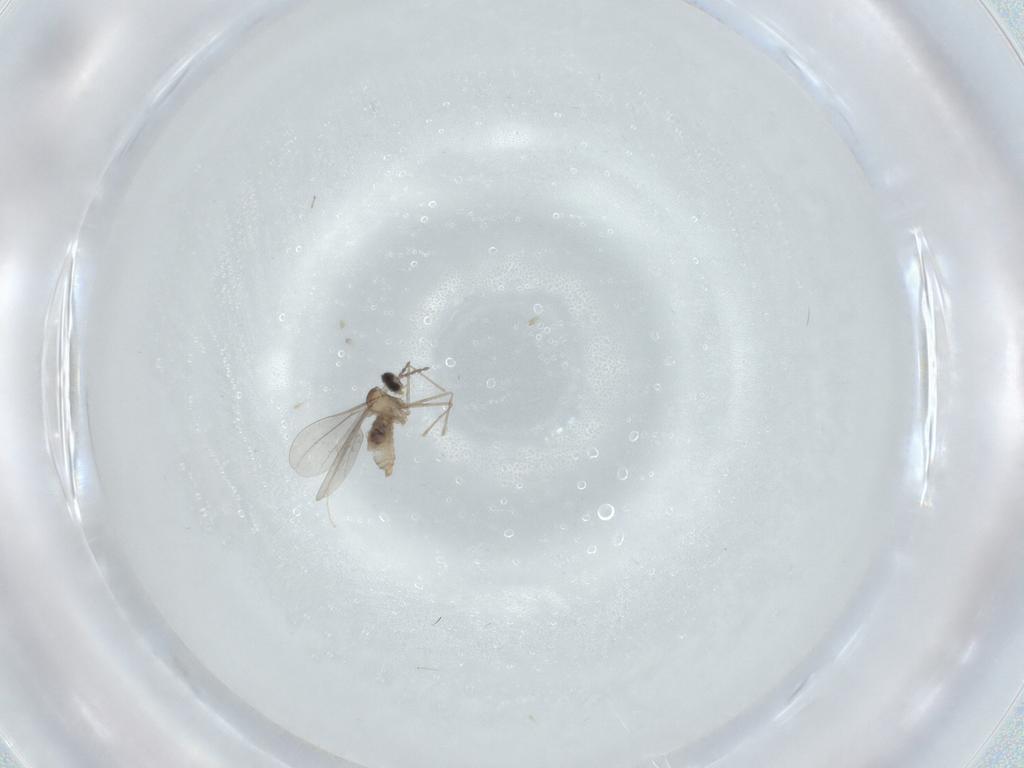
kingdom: Animalia
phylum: Arthropoda
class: Insecta
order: Diptera
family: Cecidomyiidae
